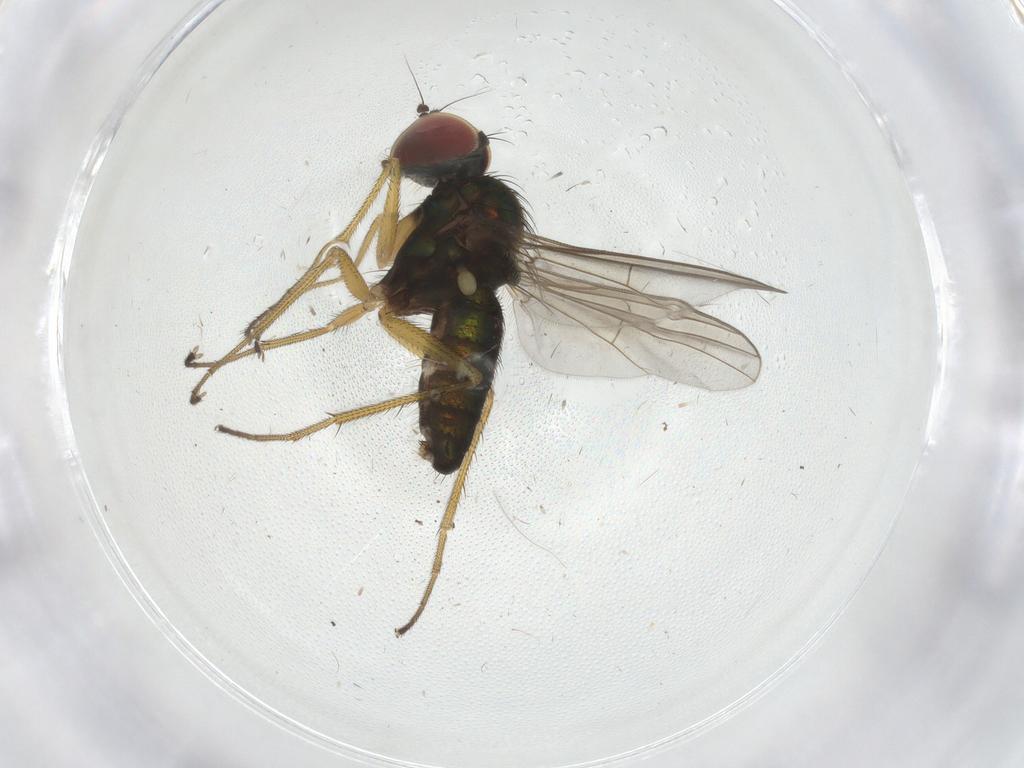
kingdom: Animalia
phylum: Arthropoda
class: Insecta
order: Diptera
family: Dolichopodidae
